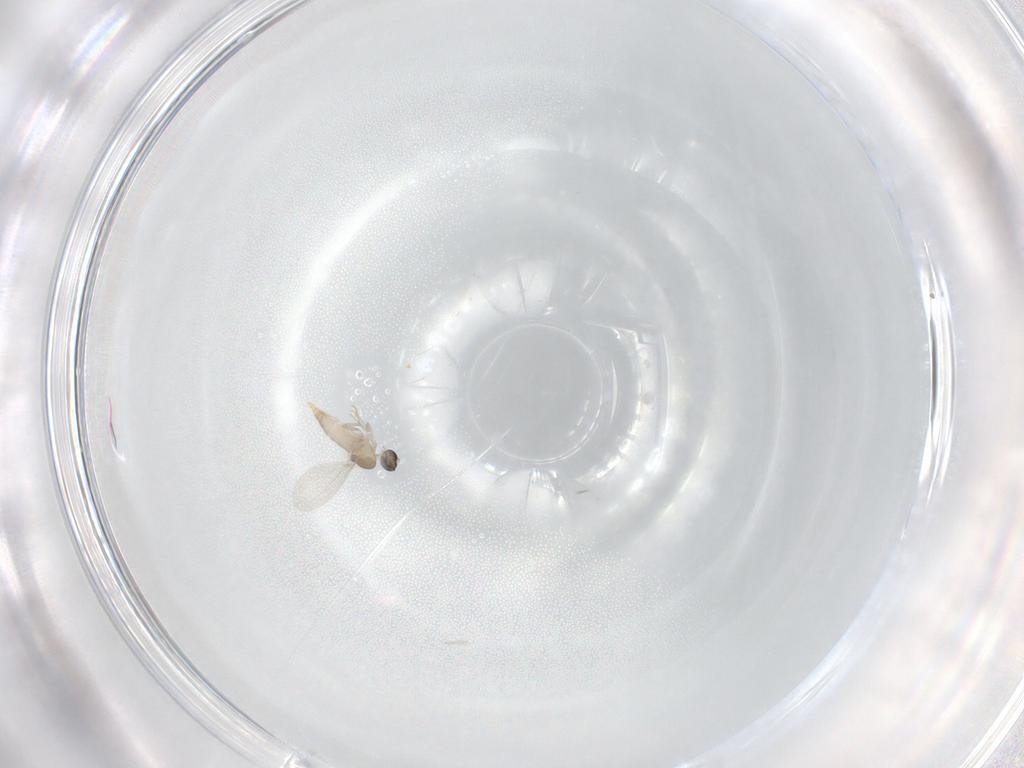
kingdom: Animalia
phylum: Arthropoda
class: Insecta
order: Diptera
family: Cecidomyiidae
